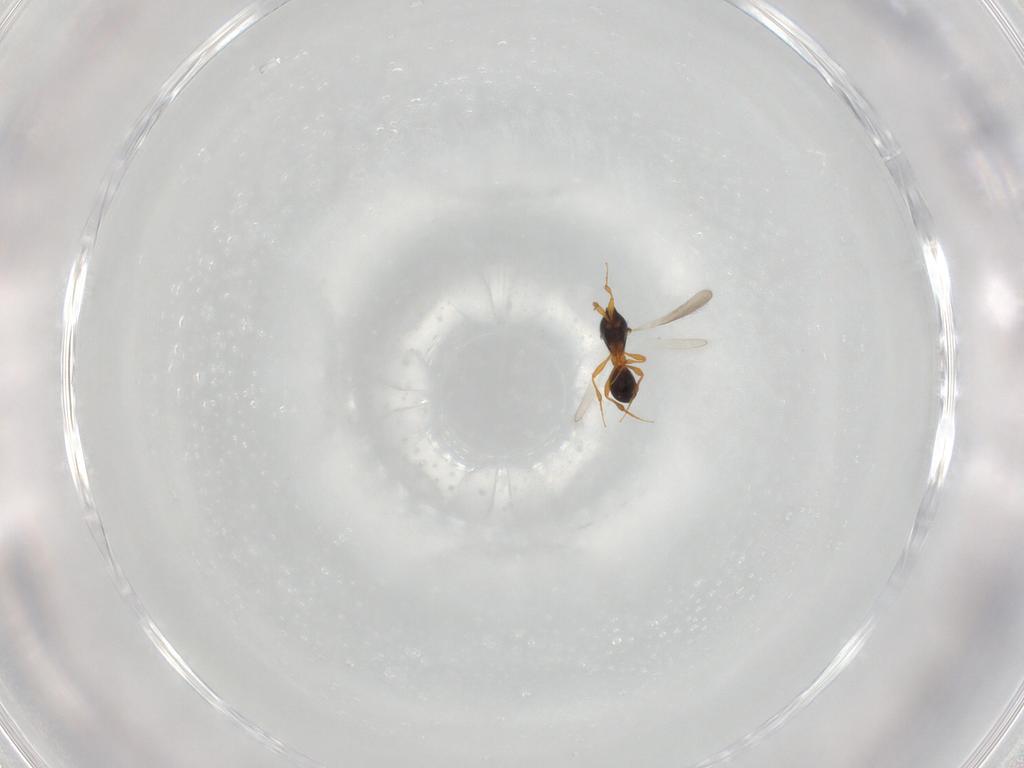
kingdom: Animalia
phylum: Arthropoda
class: Insecta
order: Hymenoptera
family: Platygastridae
